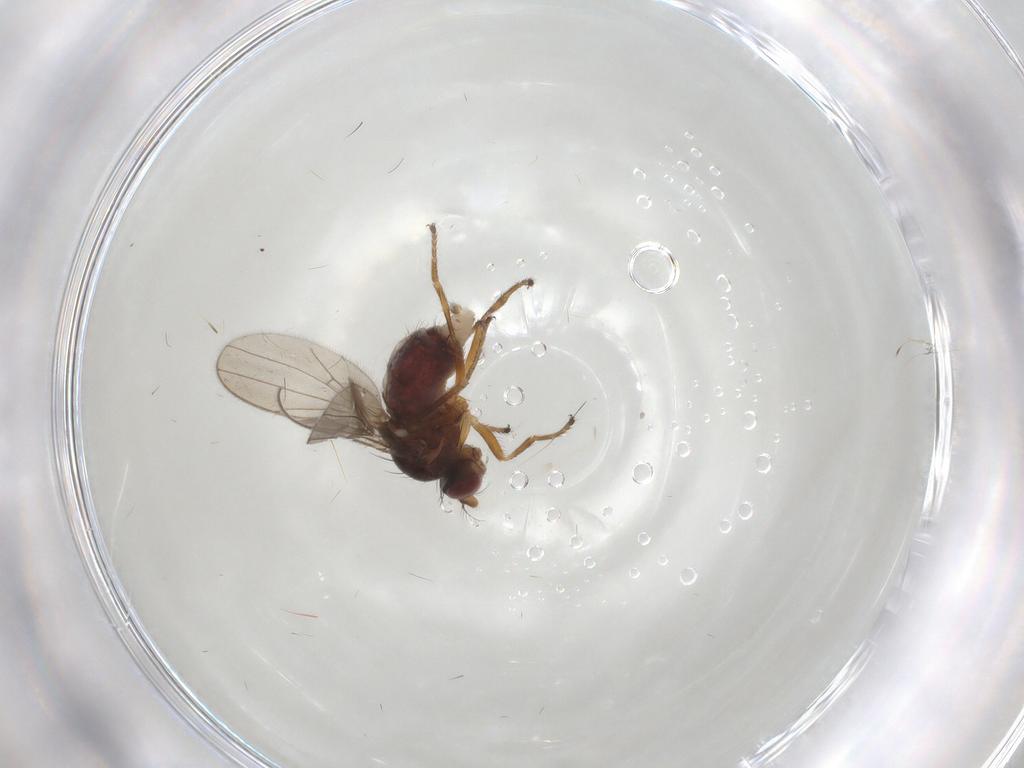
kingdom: Animalia
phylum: Arthropoda
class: Insecta
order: Diptera
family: Ephydridae
